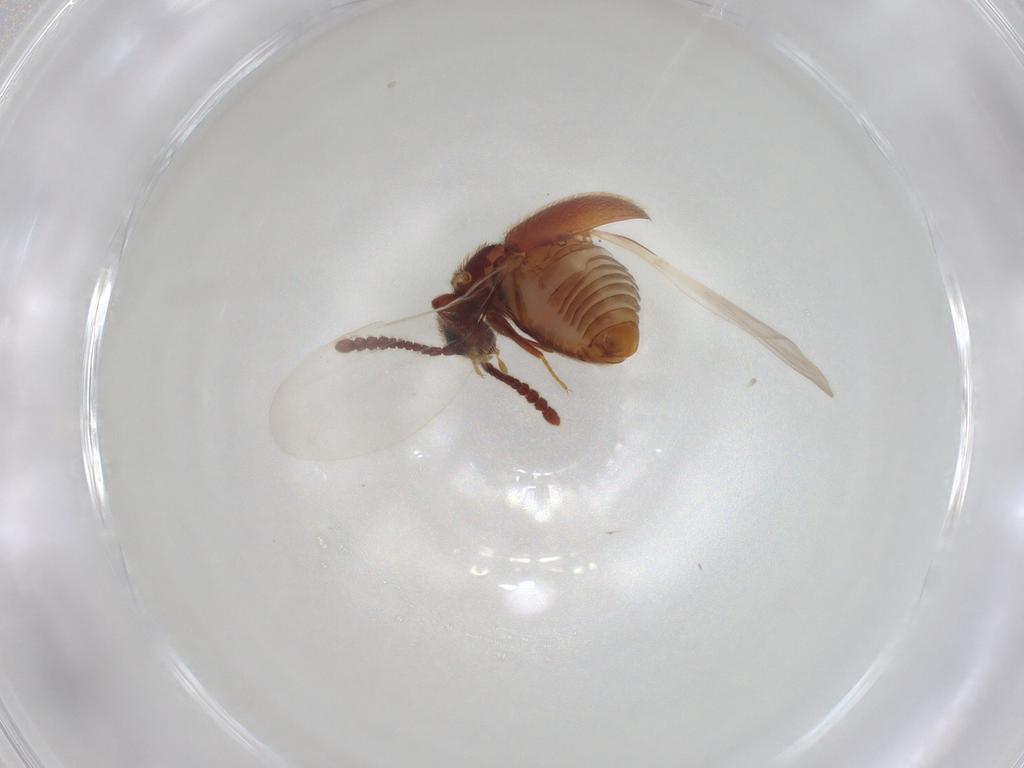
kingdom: Animalia
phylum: Arthropoda
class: Insecta
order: Coleoptera
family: Staphylinidae
